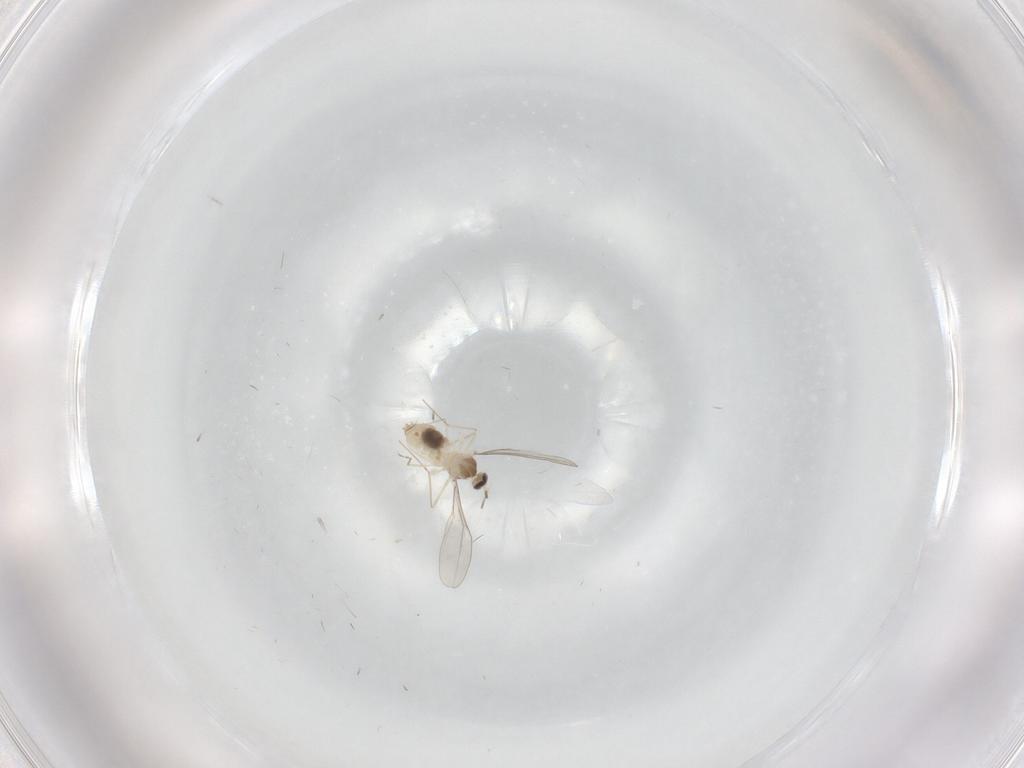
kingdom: Animalia
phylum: Arthropoda
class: Insecta
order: Diptera
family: Cecidomyiidae
